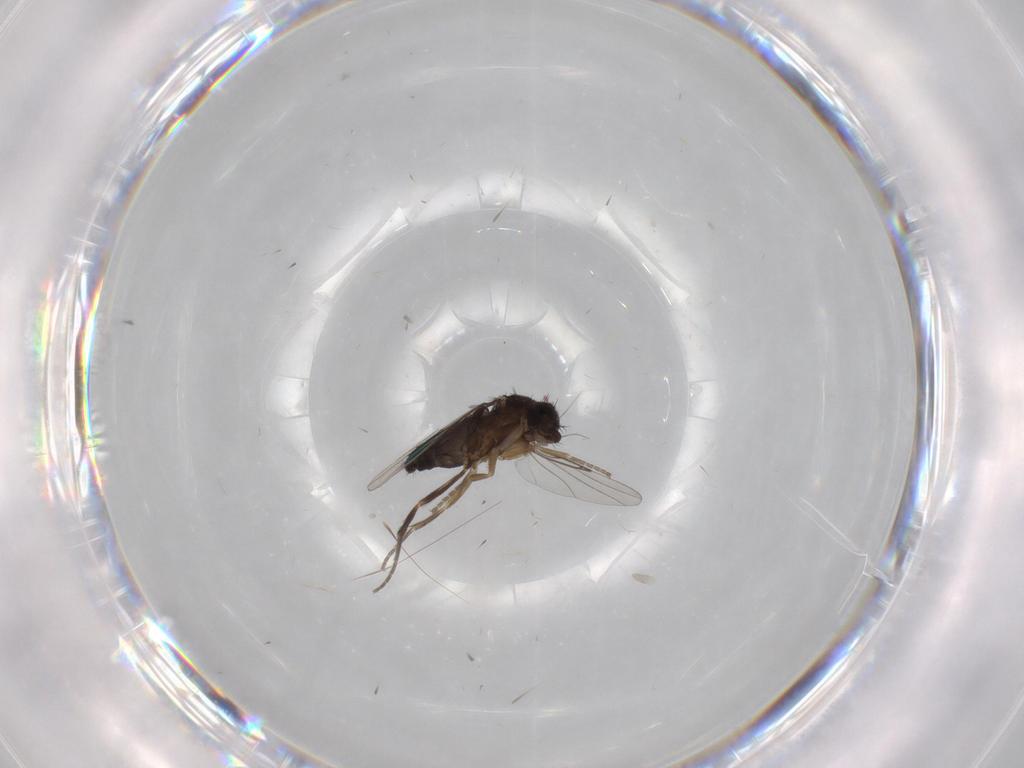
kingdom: Animalia
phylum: Arthropoda
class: Insecta
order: Diptera
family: Phoridae
